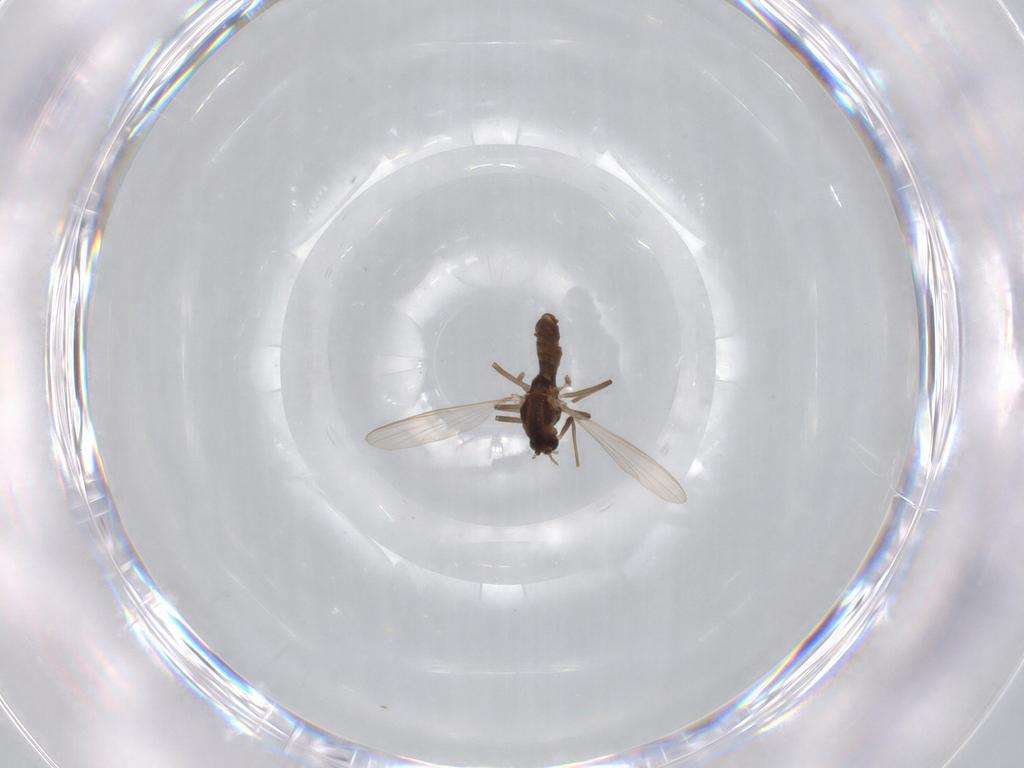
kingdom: Animalia
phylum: Arthropoda
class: Insecta
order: Diptera
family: Chironomidae
